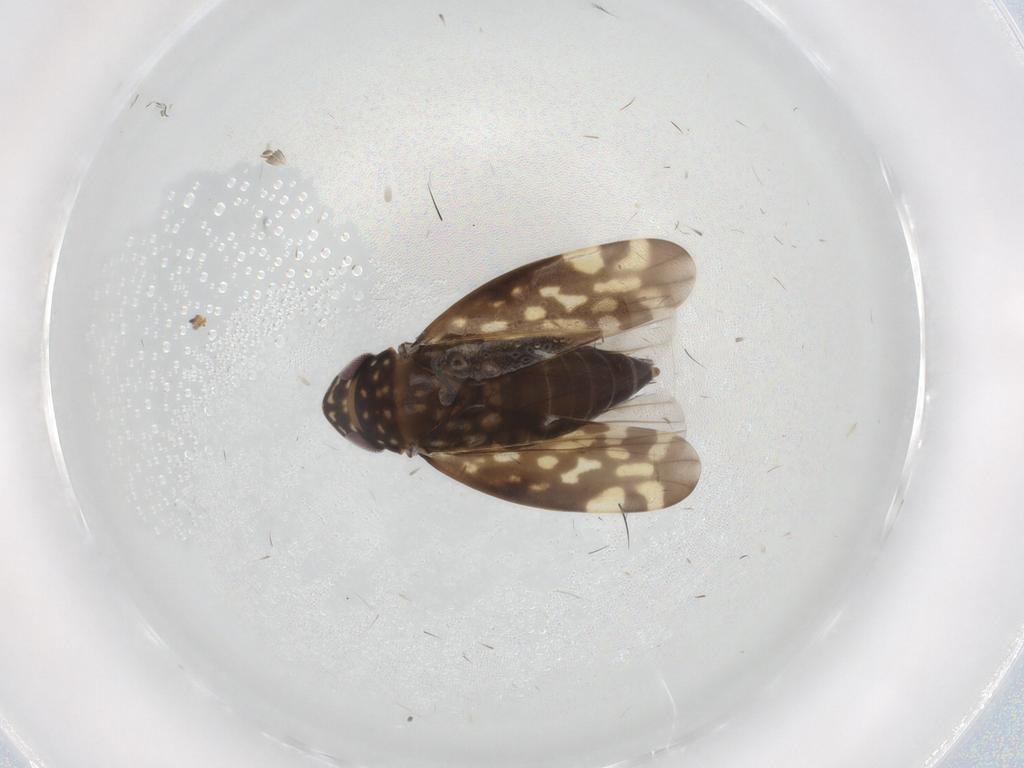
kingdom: Animalia
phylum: Arthropoda
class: Insecta
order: Hemiptera
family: Cicadellidae
